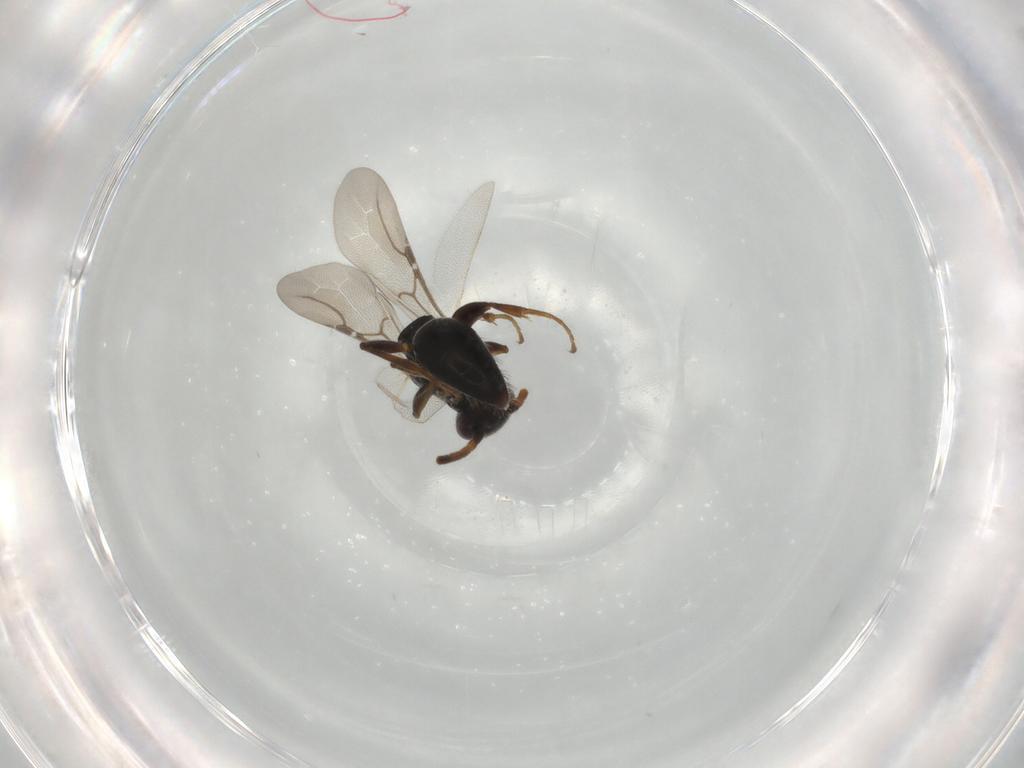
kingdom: Animalia
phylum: Arthropoda
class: Insecta
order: Hymenoptera
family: Bethylidae
